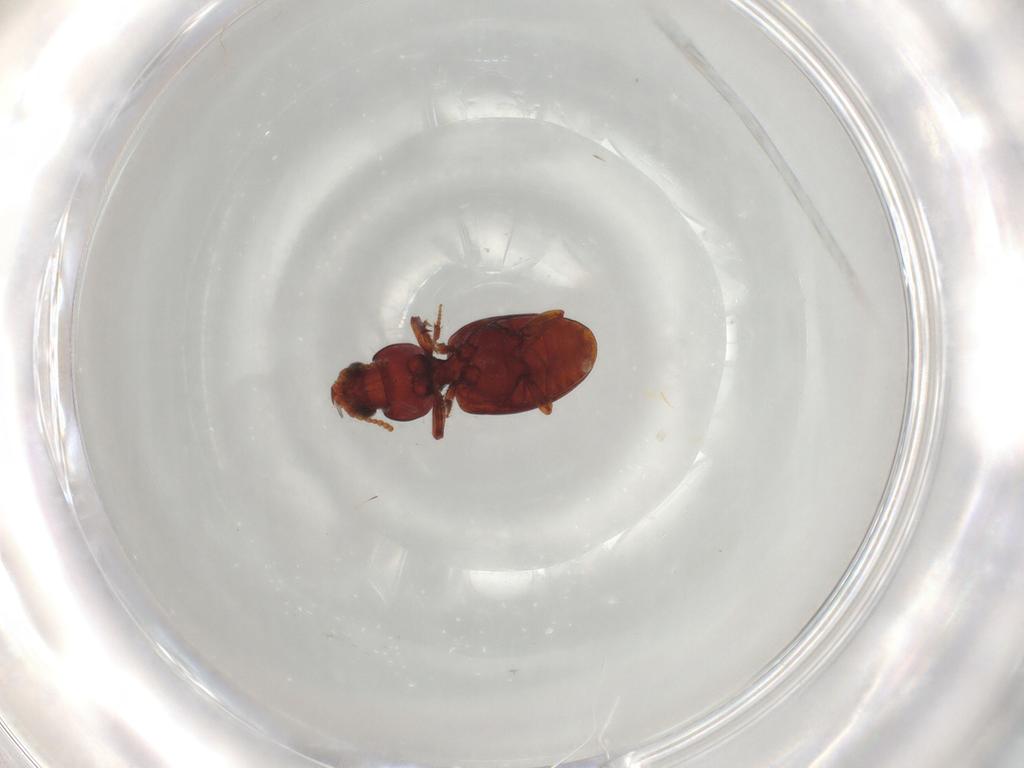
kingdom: Animalia
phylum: Arthropoda
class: Insecta
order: Coleoptera
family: Carabidae
